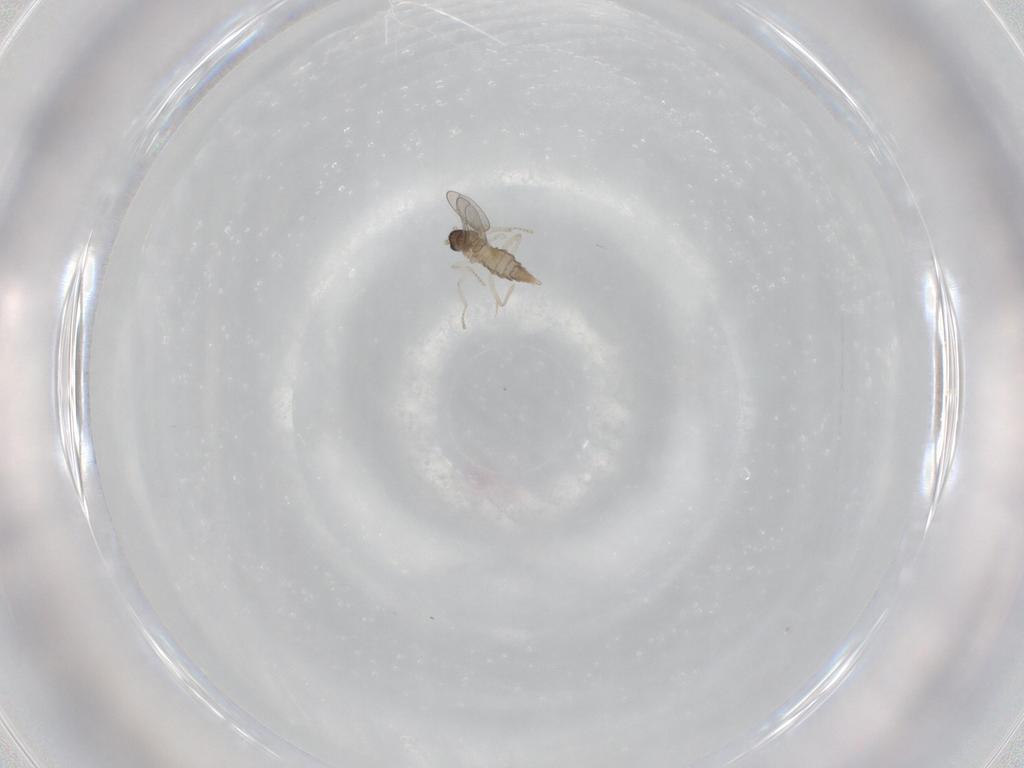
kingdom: Animalia
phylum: Arthropoda
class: Insecta
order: Diptera
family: Cecidomyiidae
